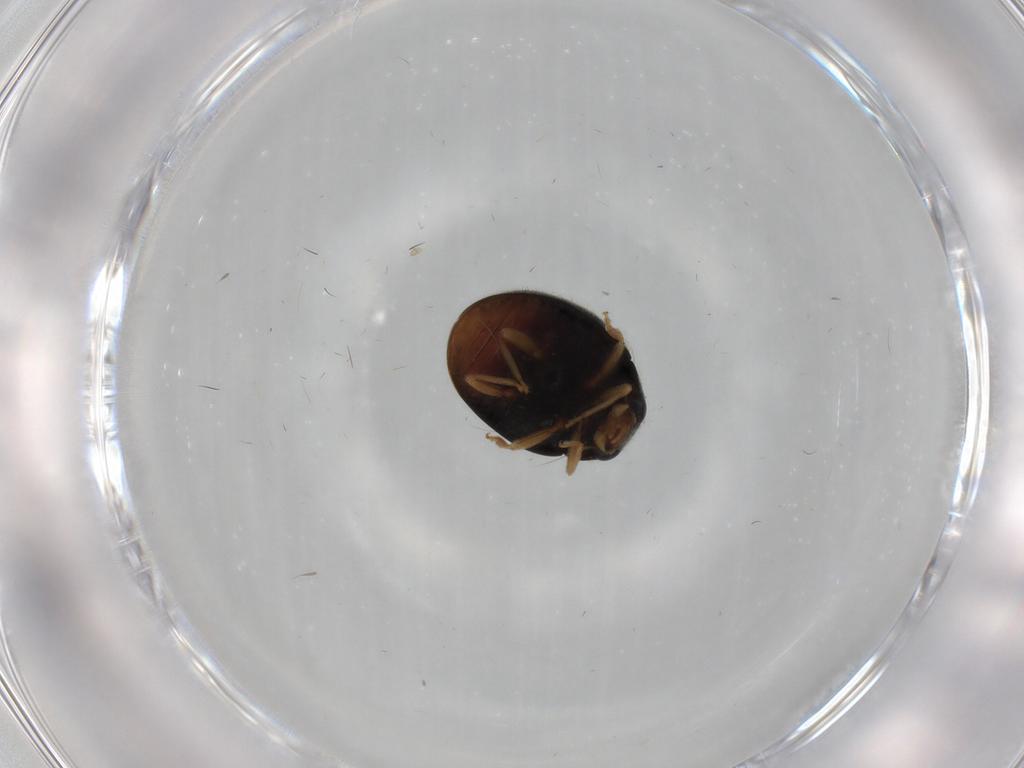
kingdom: Animalia
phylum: Arthropoda
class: Insecta
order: Coleoptera
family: Coccinellidae
